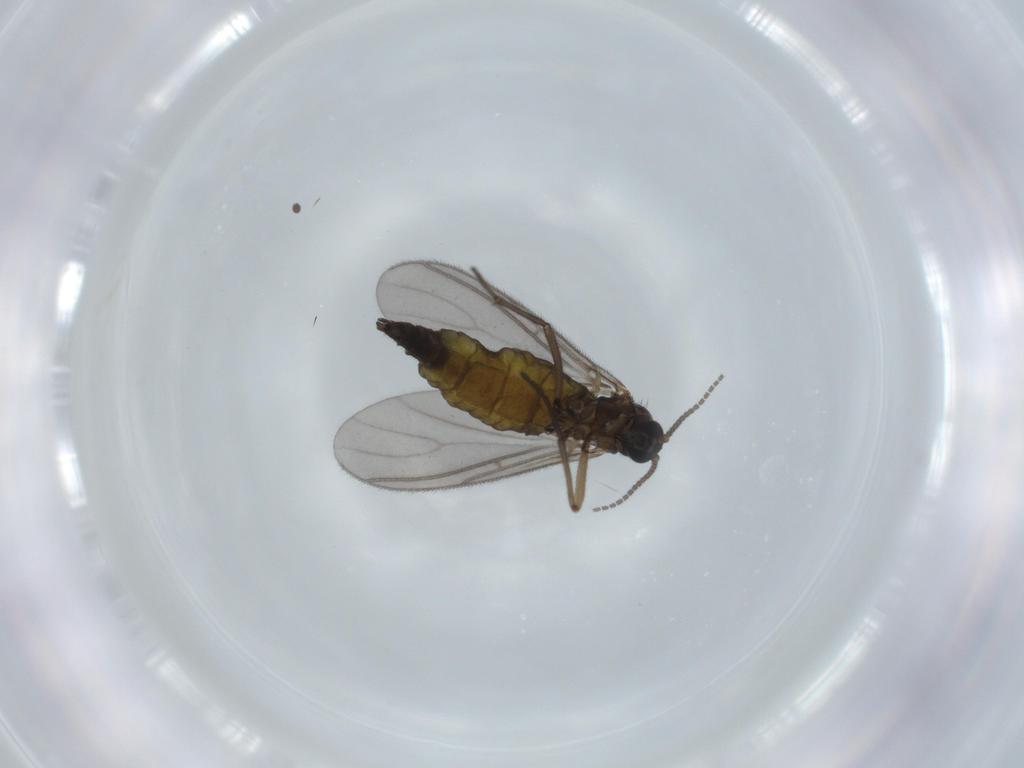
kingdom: Animalia
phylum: Arthropoda
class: Insecta
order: Diptera
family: Sciaridae
